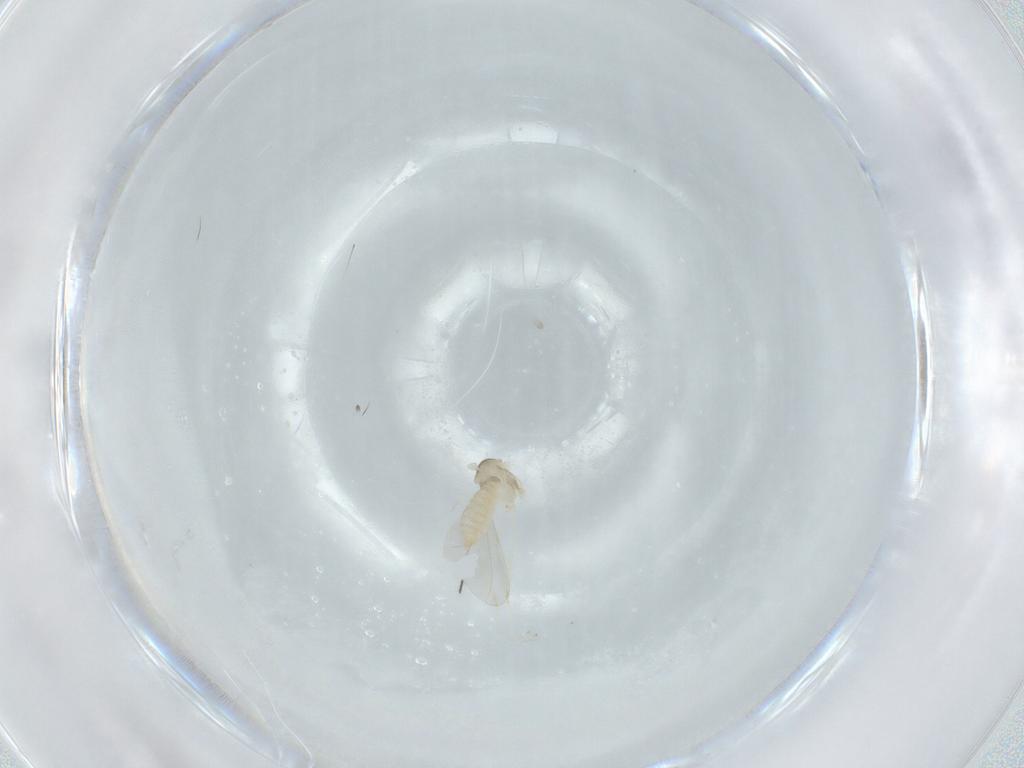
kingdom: Animalia
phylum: Arthropoda
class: Insecta
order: Diptera
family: Cecidomyiidae
